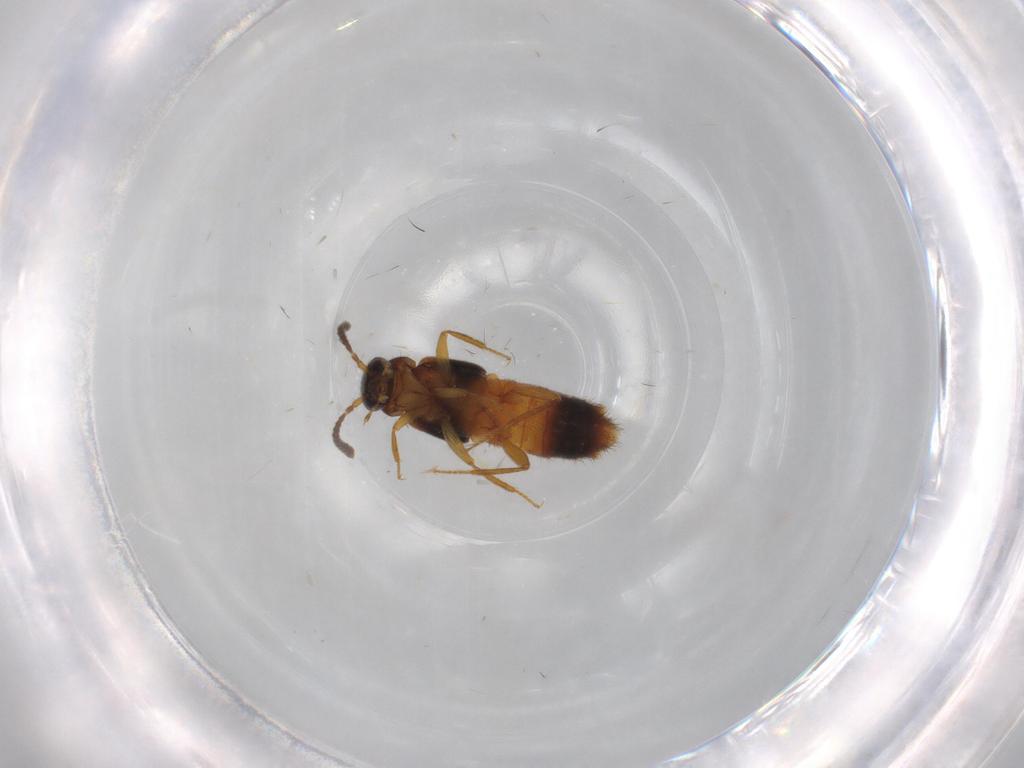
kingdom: Animalia
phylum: Arthropoda
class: Insecta
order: Coleoptera
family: Staphylinidae
